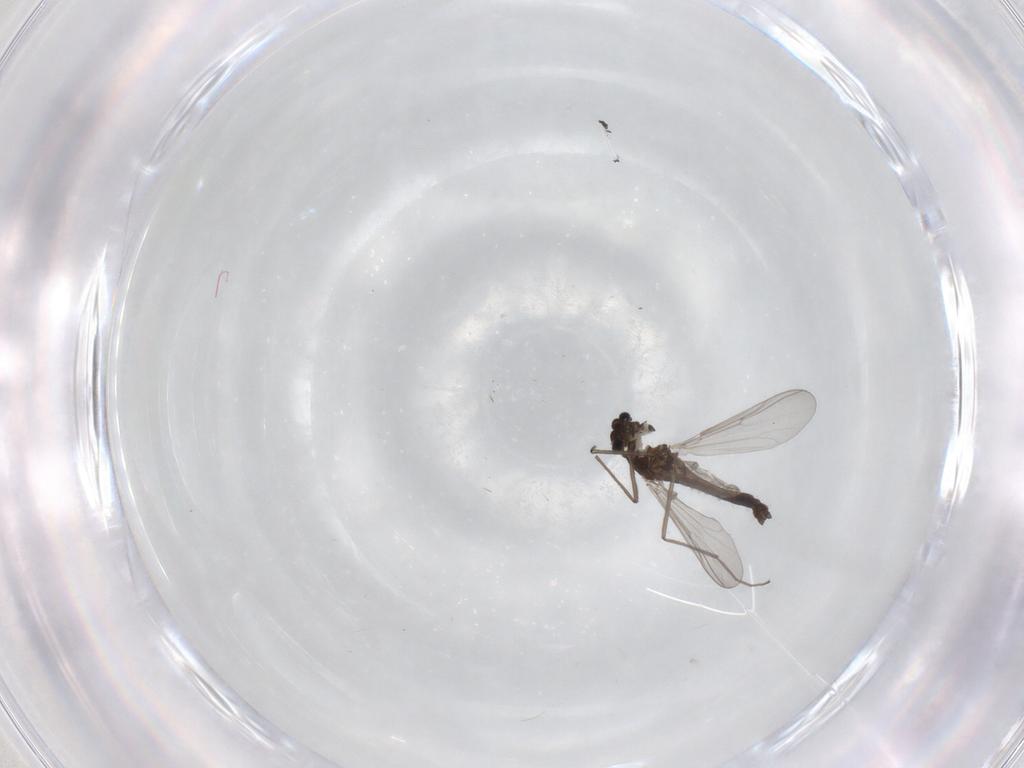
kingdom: Animalia
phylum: Arthropoda
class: Insecta
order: Diptera
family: Chironomidae
